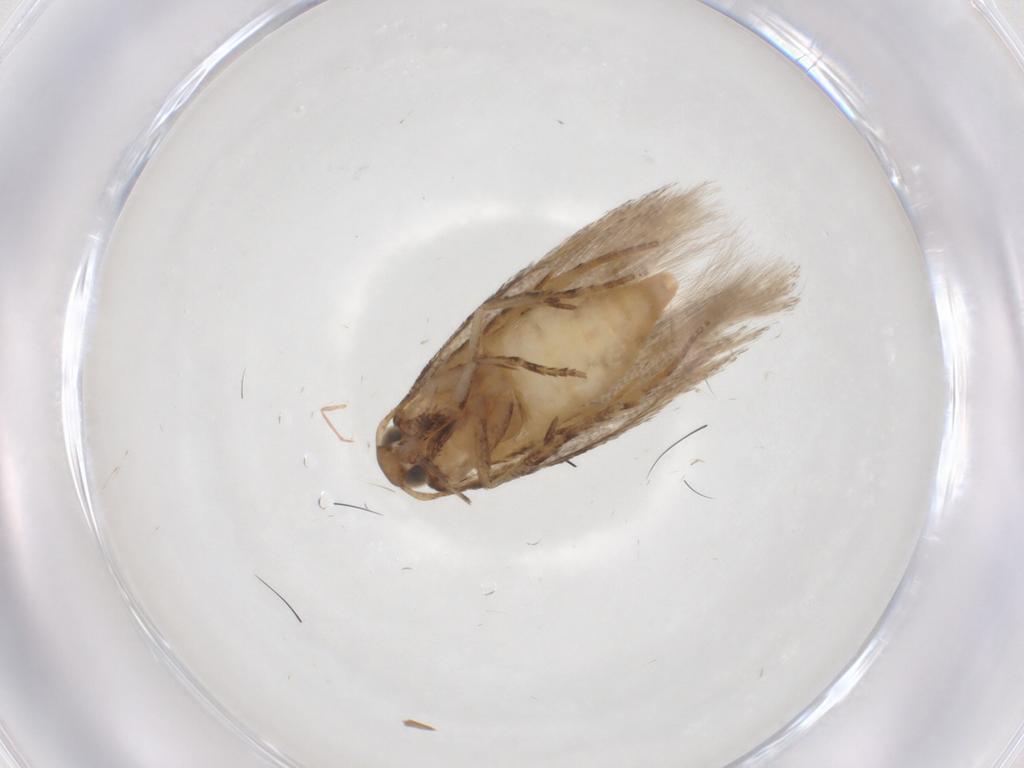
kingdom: Animalia
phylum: Arthropoda
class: Insecta
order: Lepidoptera
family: Gelechiidae
